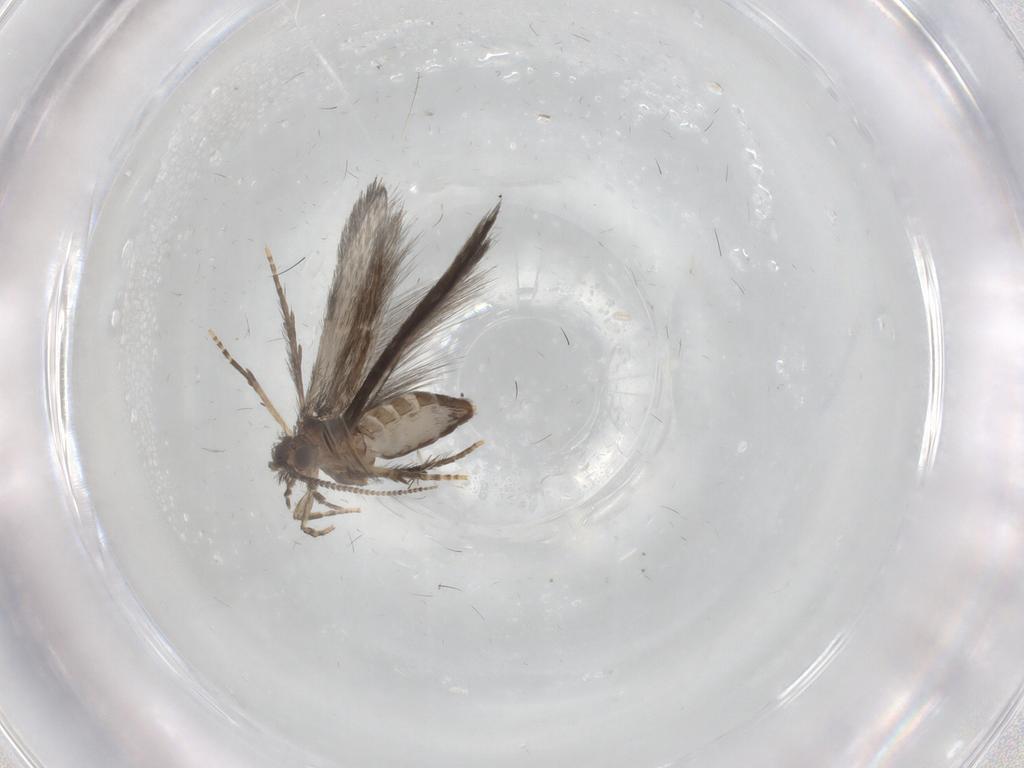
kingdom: Animalia
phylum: Arthropoda
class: Insecta
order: Trichoptera
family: Hydroptilidae
